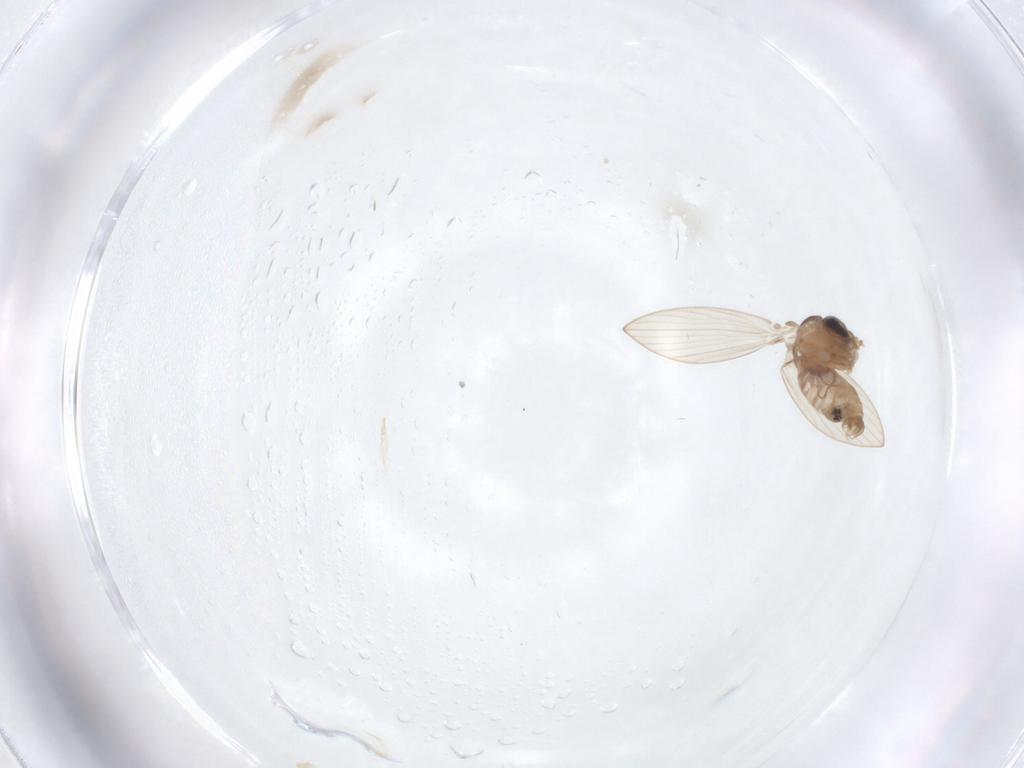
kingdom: Animalia
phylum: Arthropoda
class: Insecta
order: Diptera
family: Psychodidae
